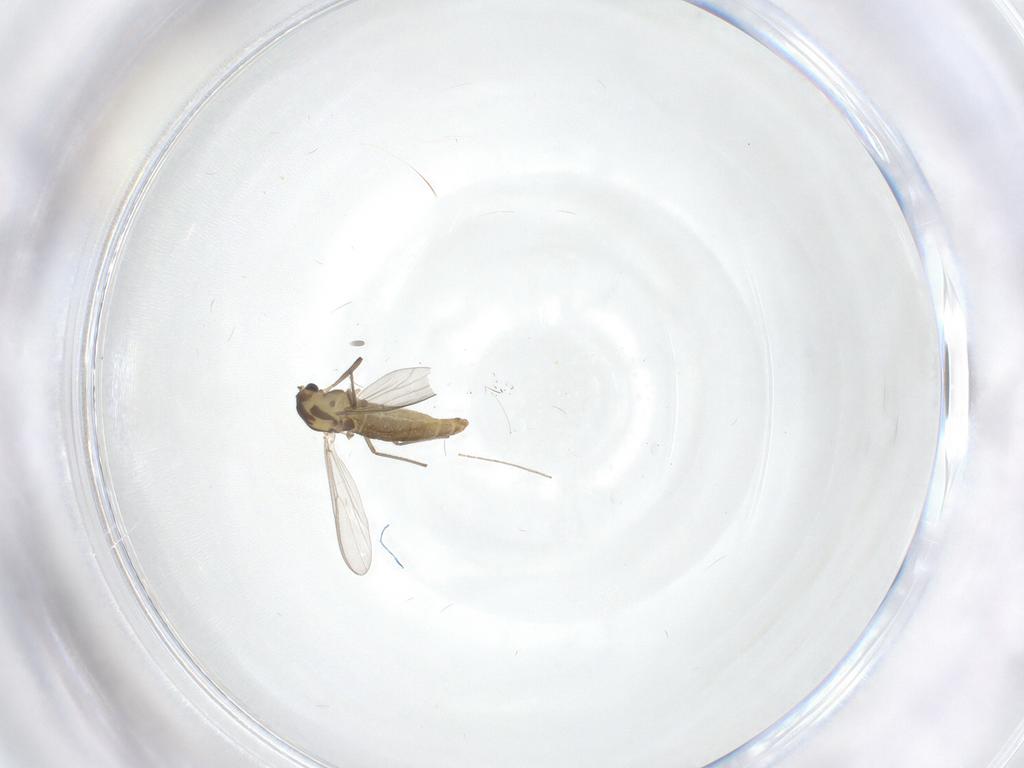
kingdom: Animalia
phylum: Arthropoda
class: Insecta
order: Diptera
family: Chironomidae
